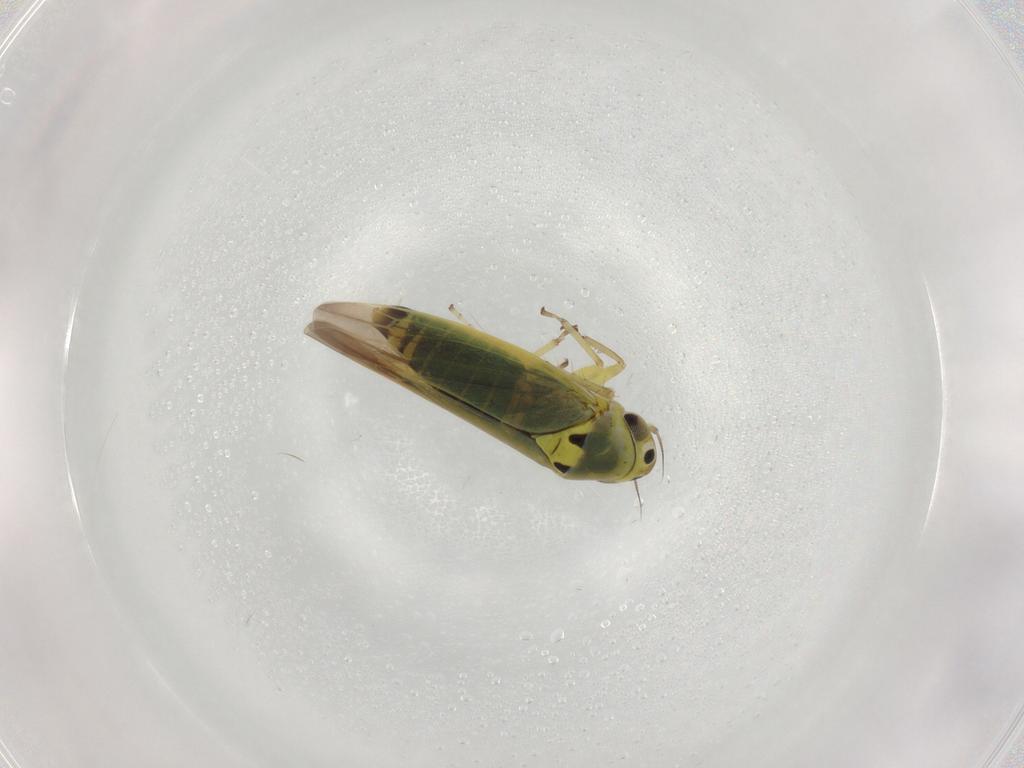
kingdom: Animalia
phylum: Arthropoda
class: Insecta
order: Hemiptera
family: Cicadellidae
